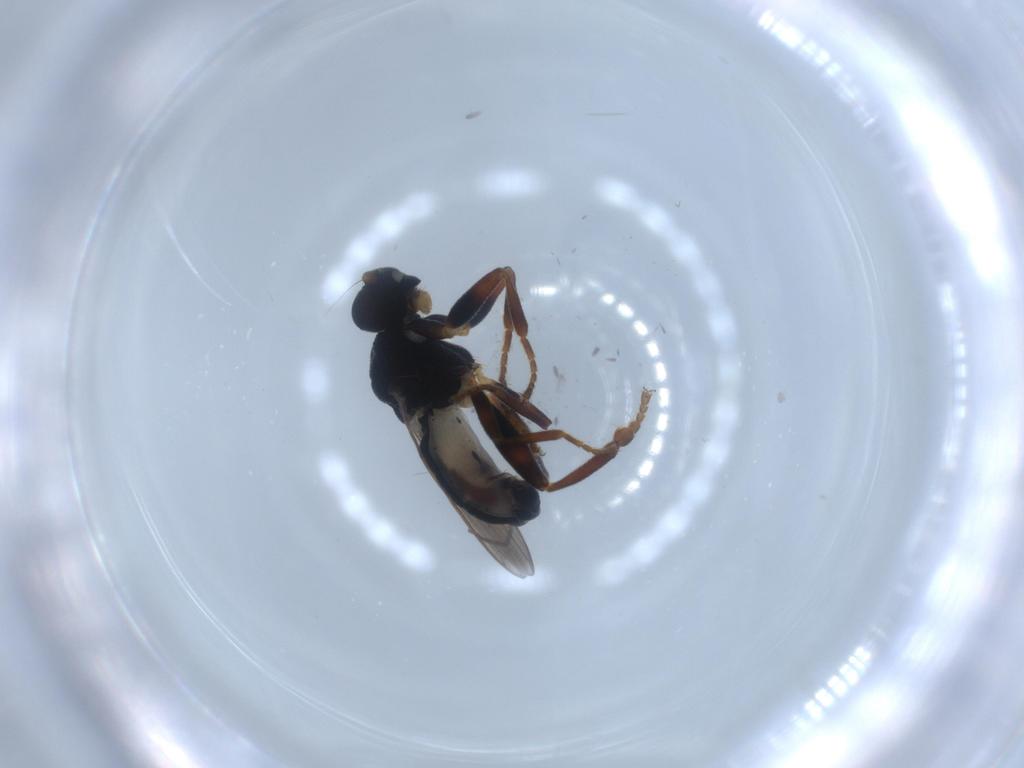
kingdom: Animalia
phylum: Arthropoda
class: Insecta
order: Diptera
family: Sphaeroceridae
